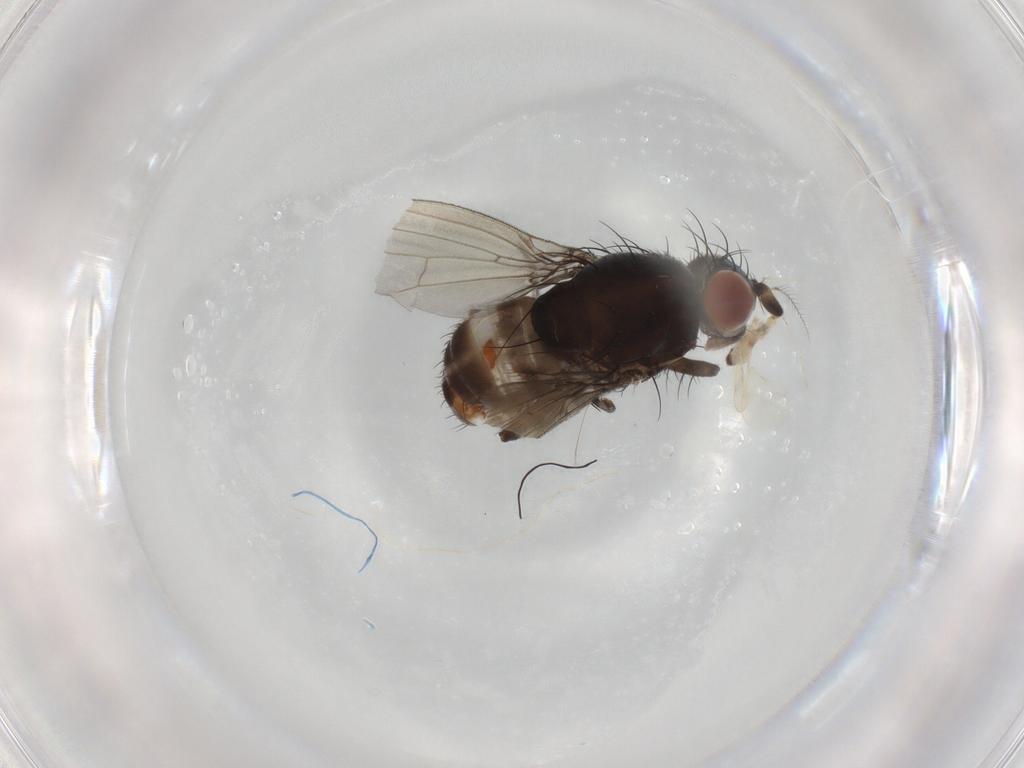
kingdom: Animalia
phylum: Arthropoda
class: Insecta
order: Diptera
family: Cecidomyiidae
